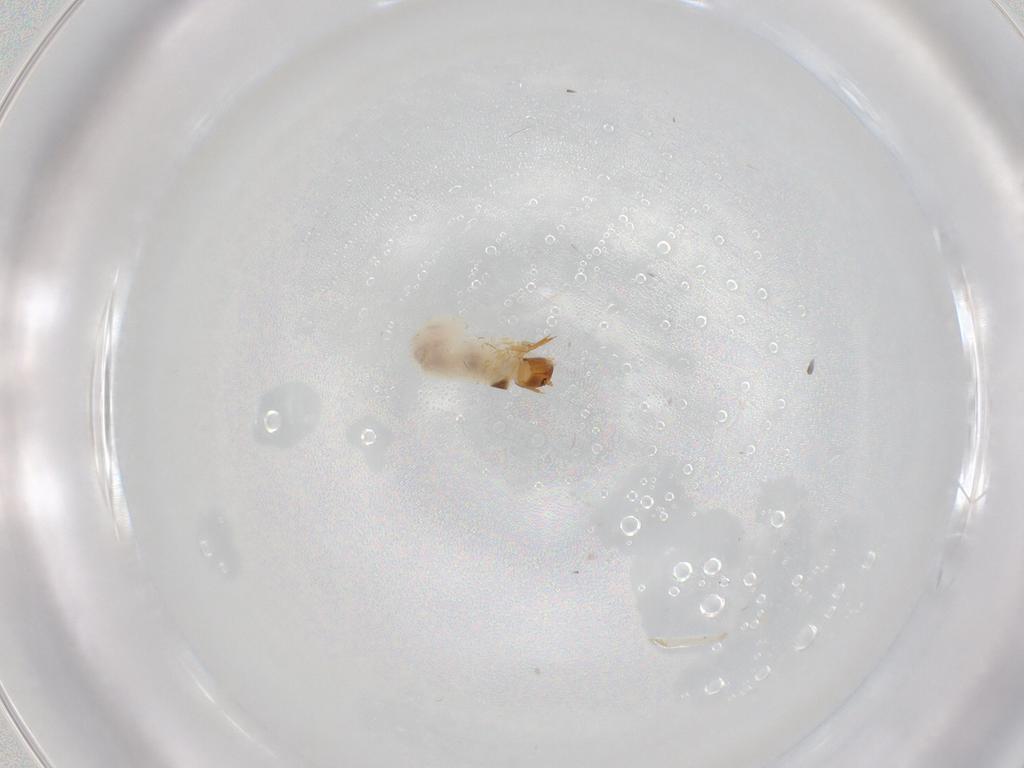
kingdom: Animalia
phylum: Arthropoda
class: Insecta
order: Coleoptera
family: Chrysomelidae
